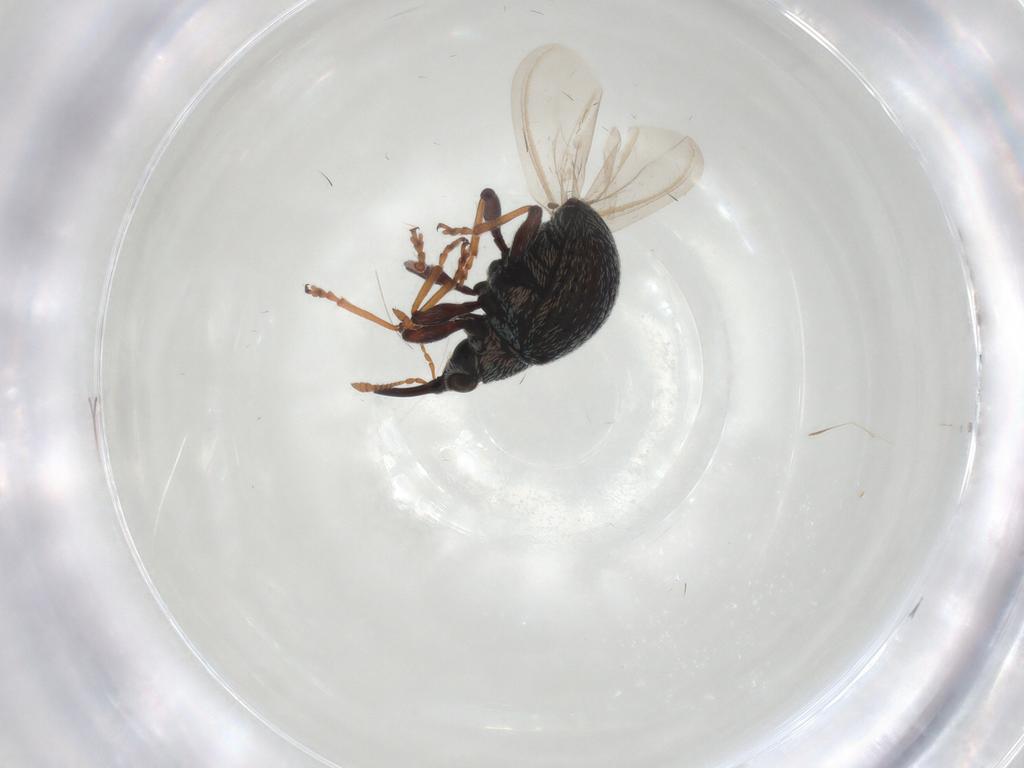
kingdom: Animalia
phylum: Arthropoda
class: Insecta
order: Coleoptera
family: Brentidae
